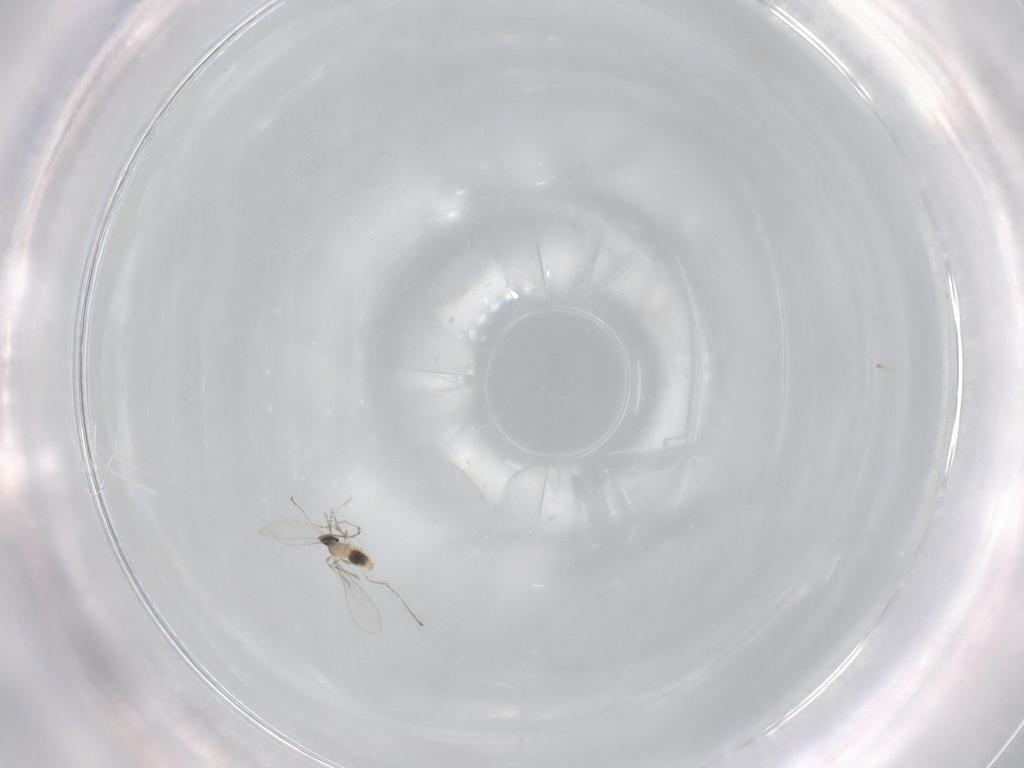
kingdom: Animalia
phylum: Arthropoda
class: Insecta
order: Diptera
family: Cecidomyiidae
